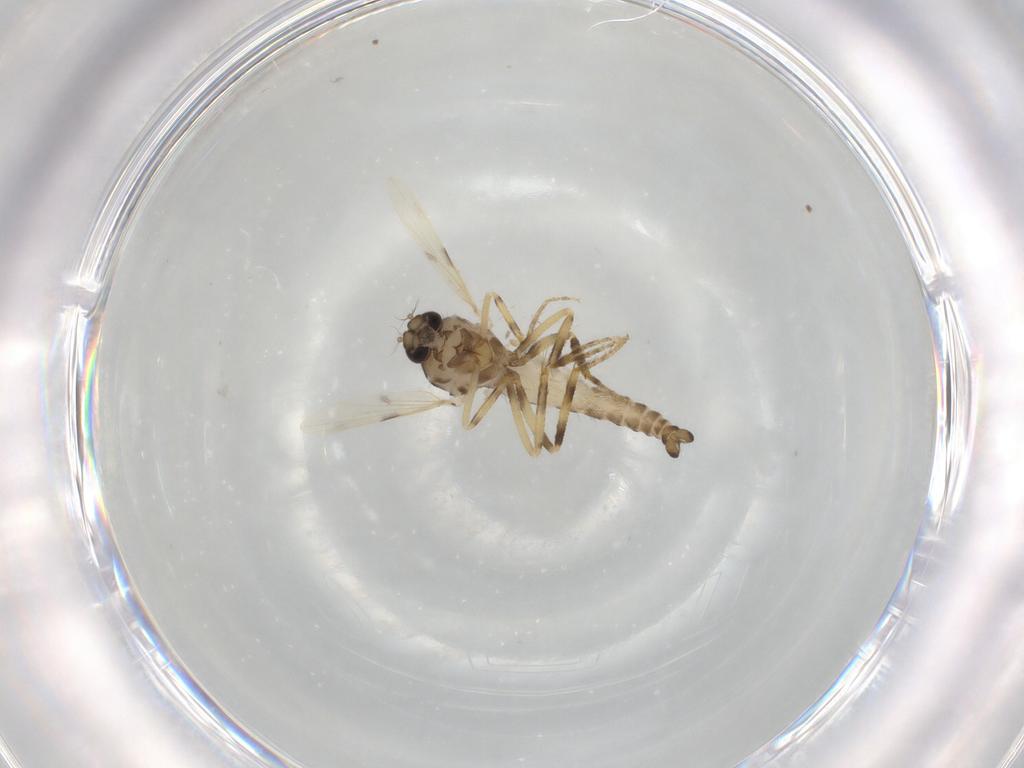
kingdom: Animalia
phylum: Arthropoda
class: Insecta
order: Diptera
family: Ceratopogonidae
